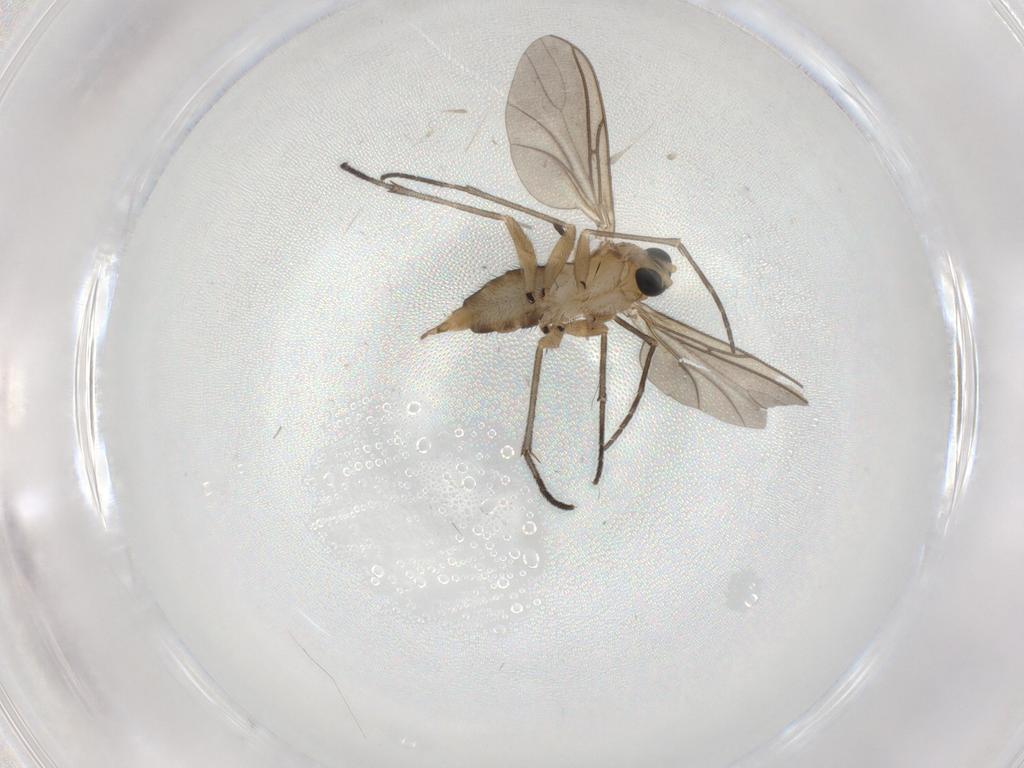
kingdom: Animalia
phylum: Arthropoda
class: Insecta
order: Diptera
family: Sciaridae
